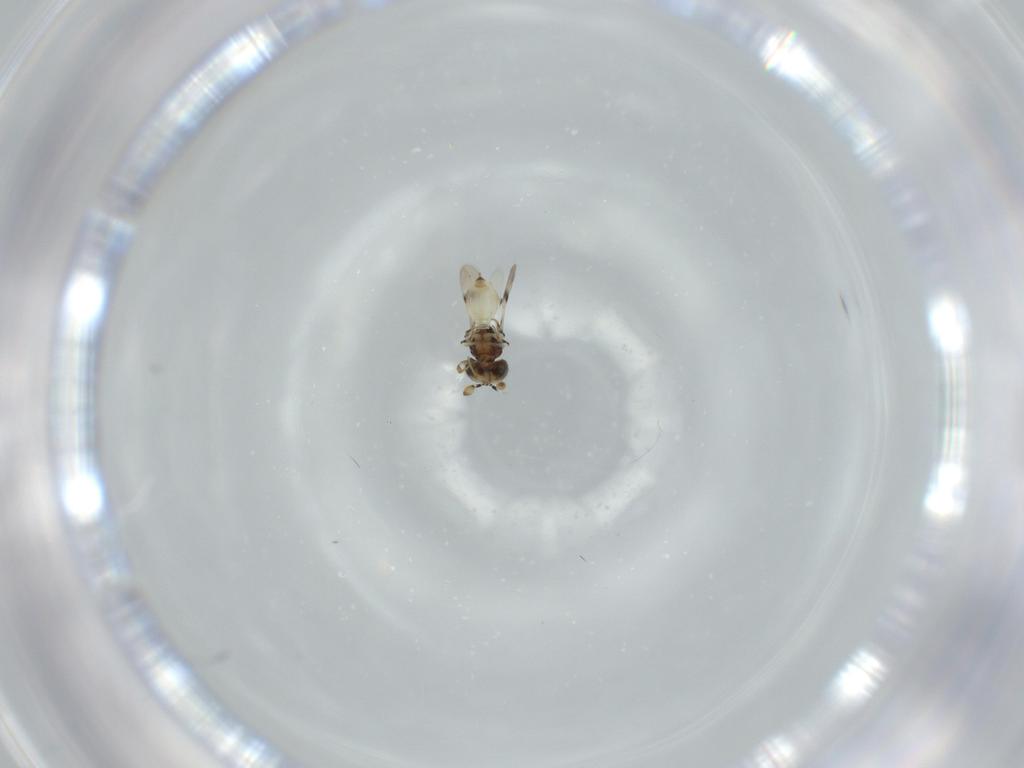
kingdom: Animalia
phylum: Arthropoda
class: Insecta
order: Hymenoptera
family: Scelionidae
